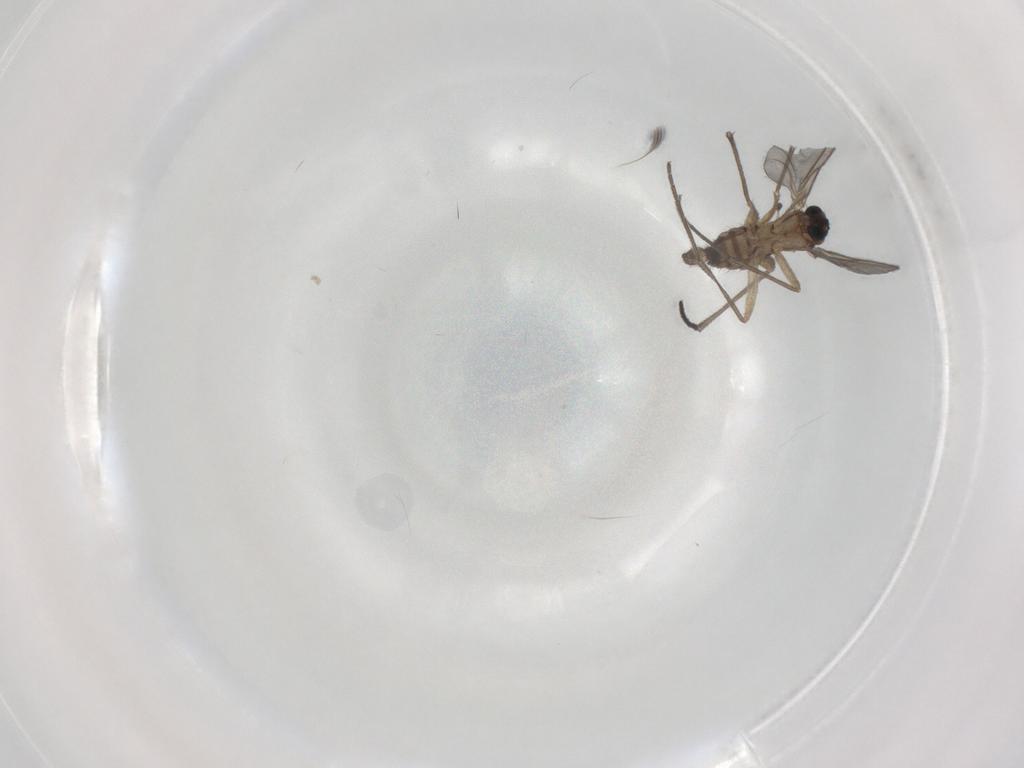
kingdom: Animalia
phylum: Arthropoda
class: Insecta
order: Diptera
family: Sciaridae
